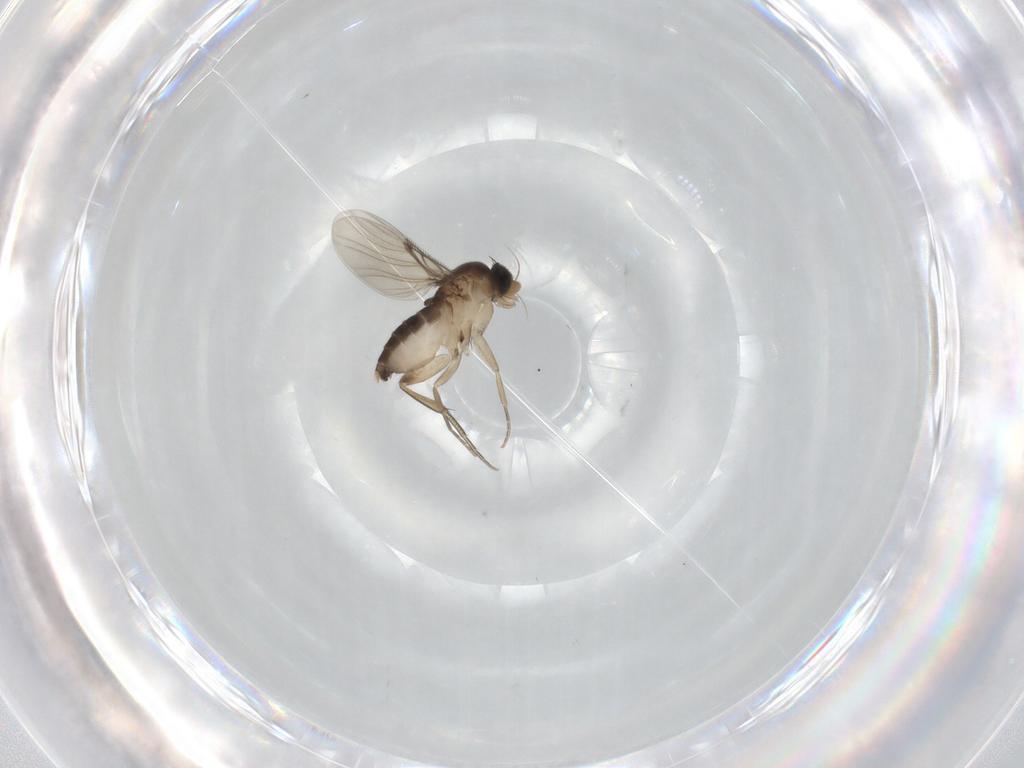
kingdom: Animalia
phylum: Arthropoda
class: Insecta
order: Diptera
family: Phoridae
